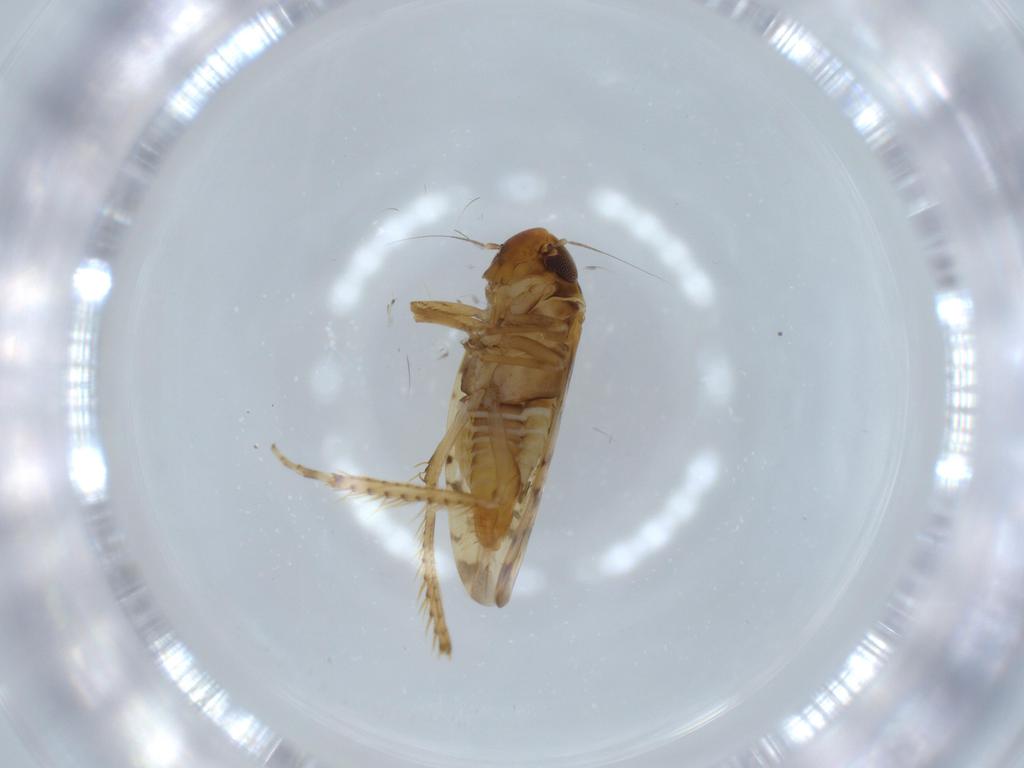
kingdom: Animalia
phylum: Arthropoda
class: Insecta
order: Hemiptera
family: Cicadellidae
